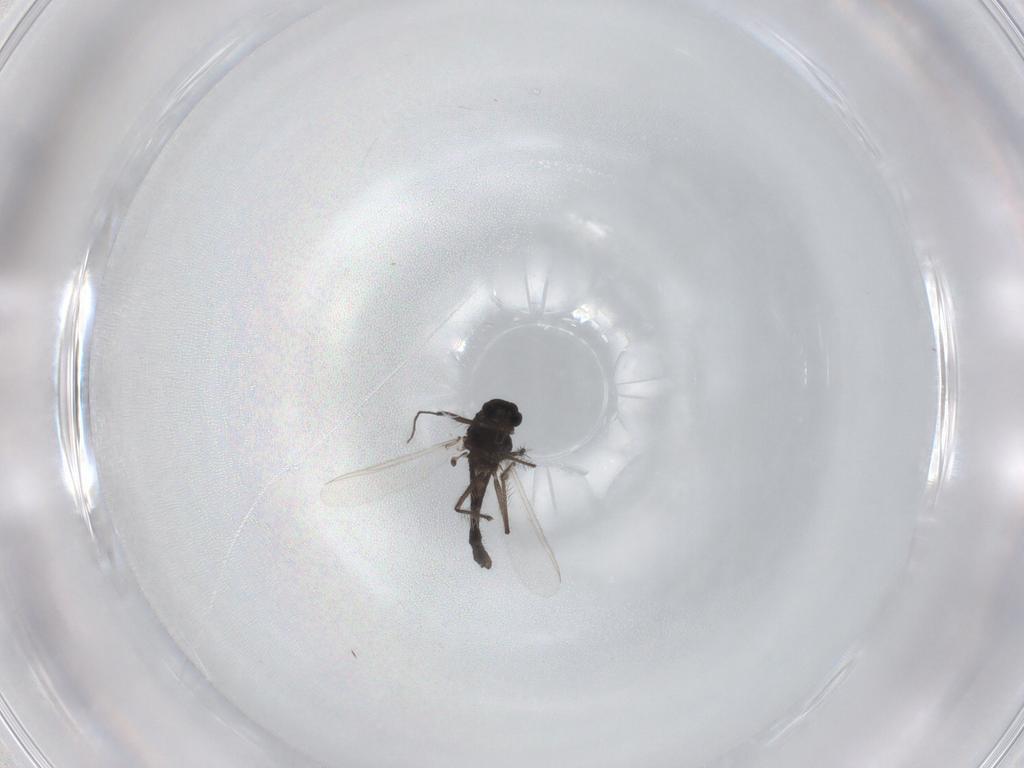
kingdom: Animalia
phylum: Arthropoda
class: Insecta
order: Diptera
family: Chironomidae
